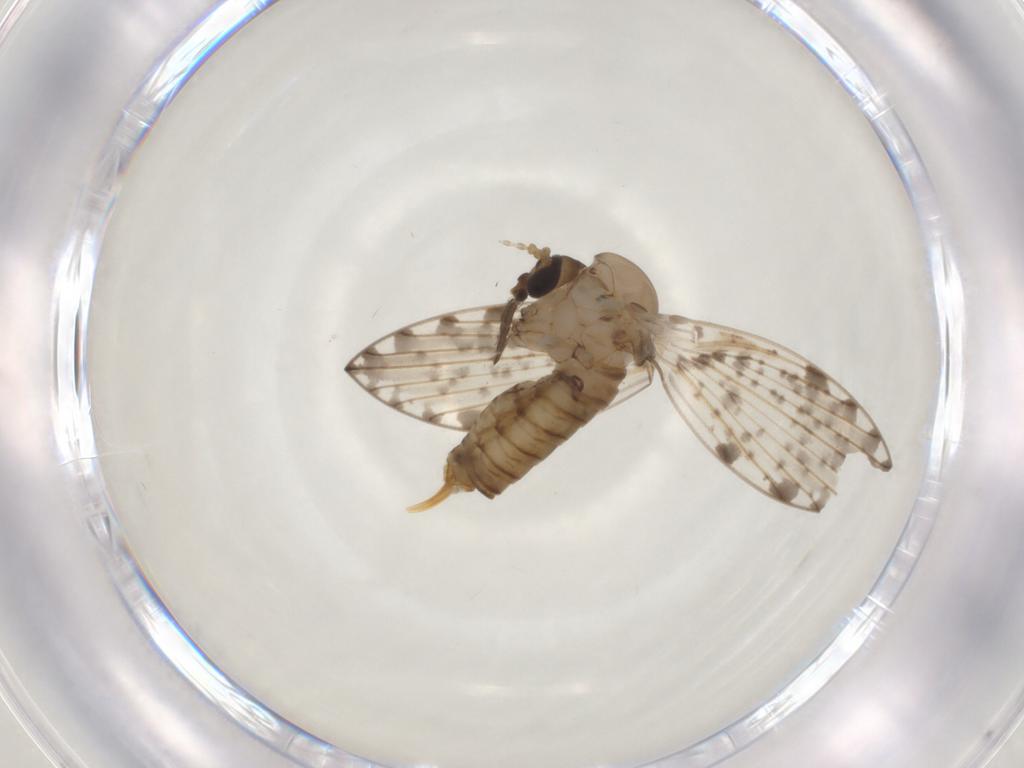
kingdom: Animalia
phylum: Arthropoda
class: Insecta
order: Diptera
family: Psychodidae
